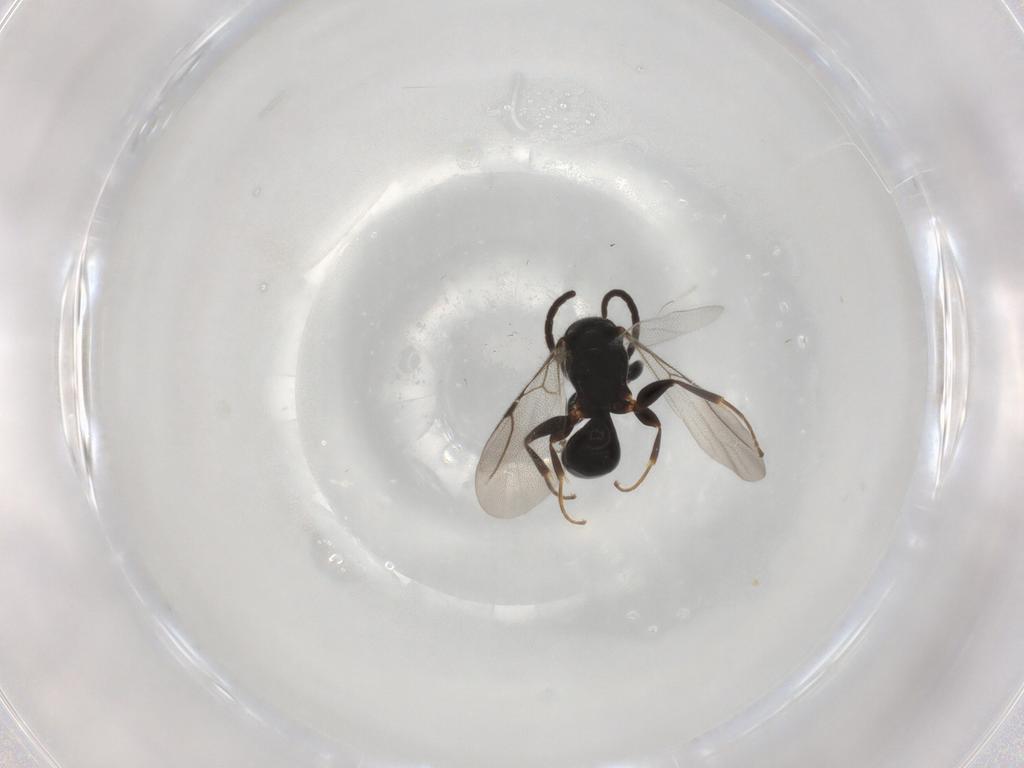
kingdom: Animalia
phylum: Arthropoda
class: Insecta
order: Hymenoptera
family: Bethylidae
